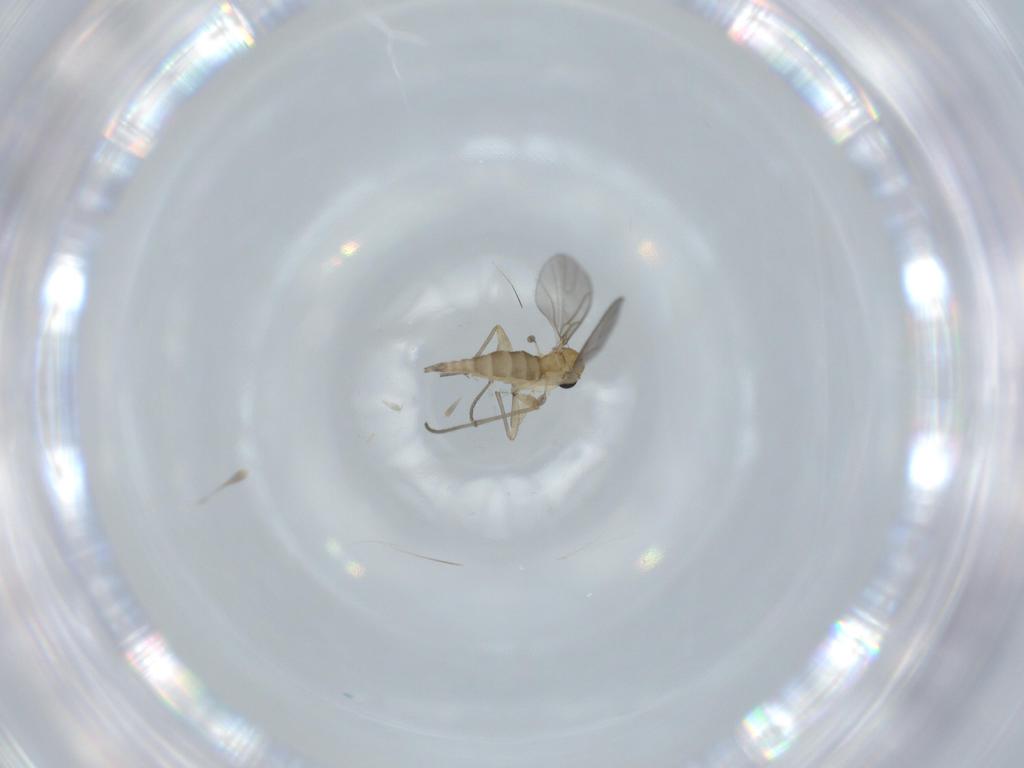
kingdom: Animalia
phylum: Arthropoda
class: Insecta
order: Diptera
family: Sciaridae
